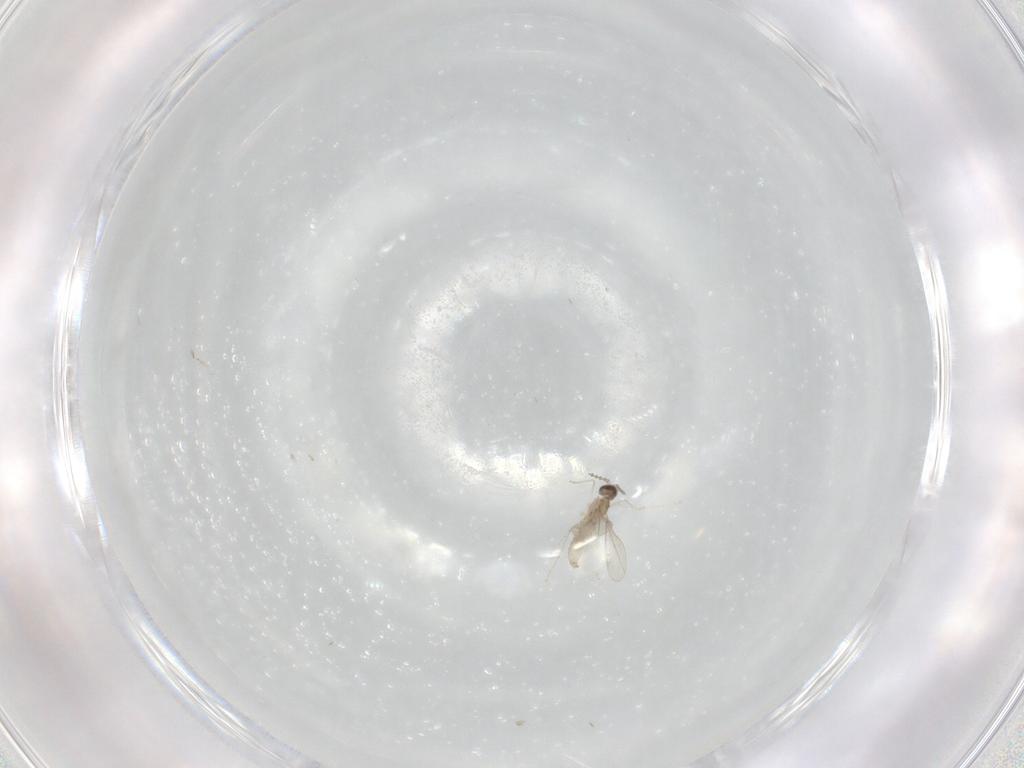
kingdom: Animalia
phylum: Arthropoda
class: Insecta
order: Diptera
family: Cecidomyiidae
